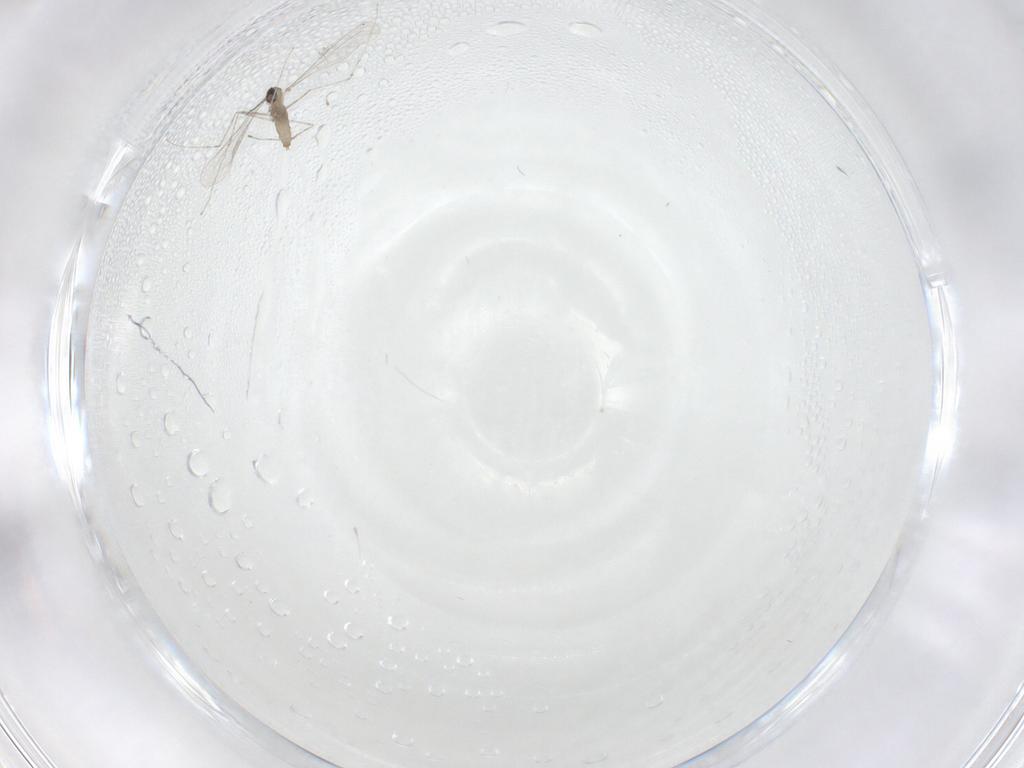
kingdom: Animalia
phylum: Arthropoda
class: Insecta
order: Diptera
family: Cecidomyiidae
